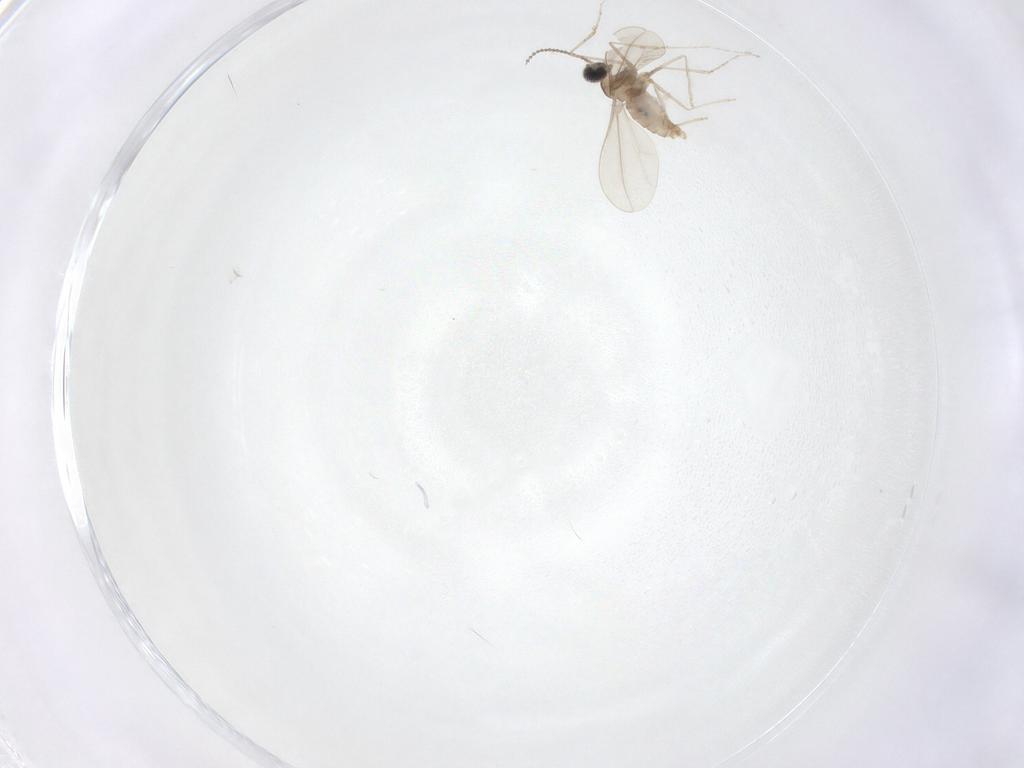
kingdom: Animalia
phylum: Arthropoda
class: Insecta
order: Diptera
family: Cecidomyiidae
